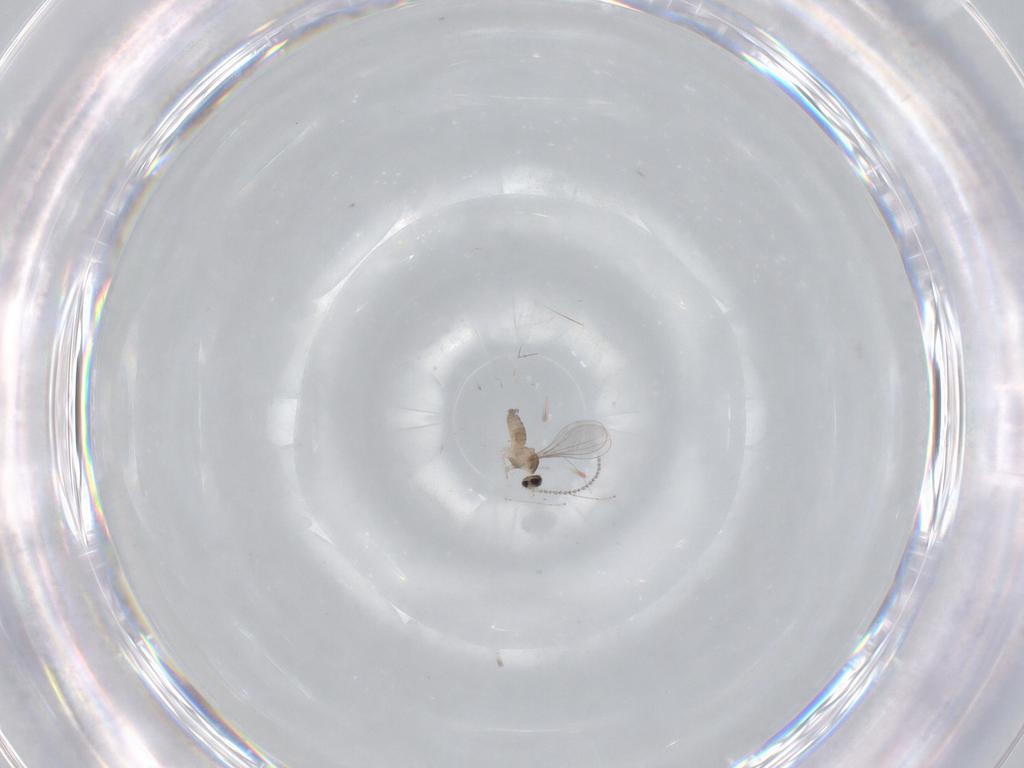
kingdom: Animalia
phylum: Arthropoda
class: Insecta
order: Diptera
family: Cecidomyiidae
